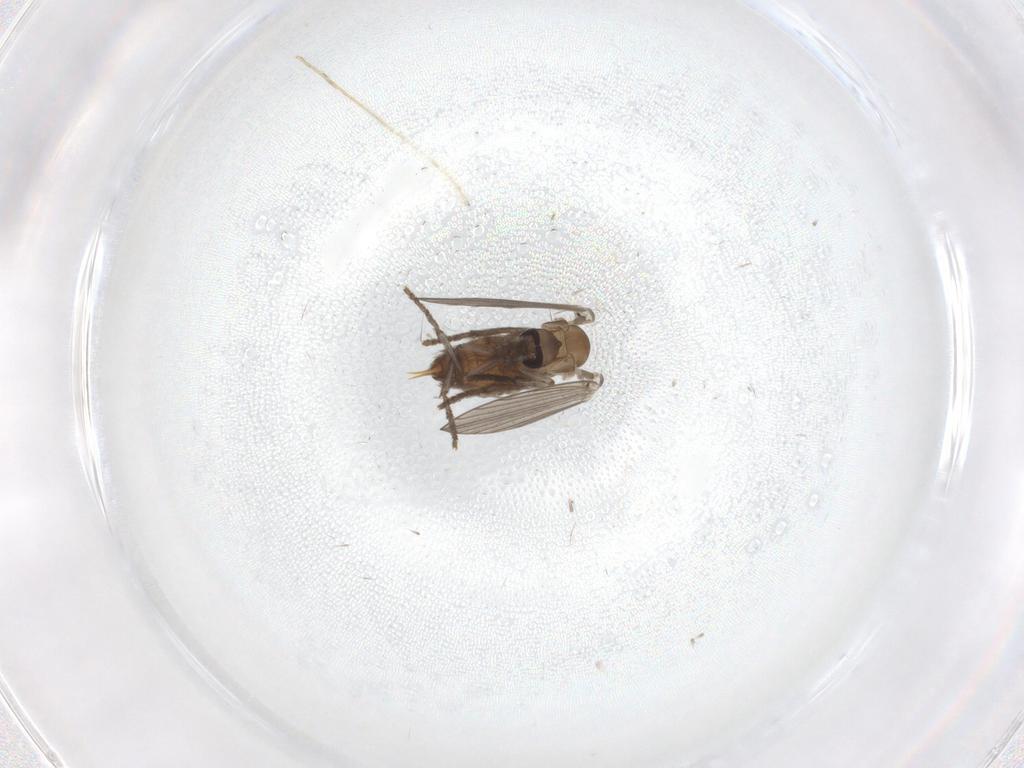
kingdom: Animalia
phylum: Arthropoda
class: Insecta
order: Diptera
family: Psychodidae
